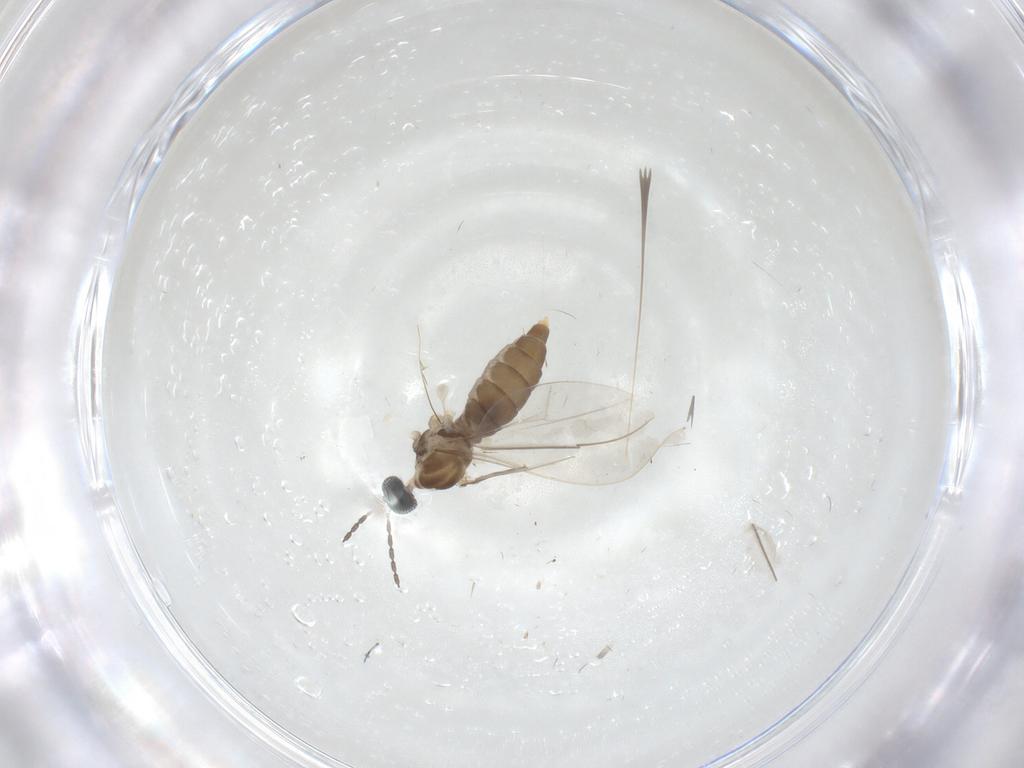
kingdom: Animalia
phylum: Arthropoda
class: Insecta
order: Diptera
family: Cecidomyiidae
